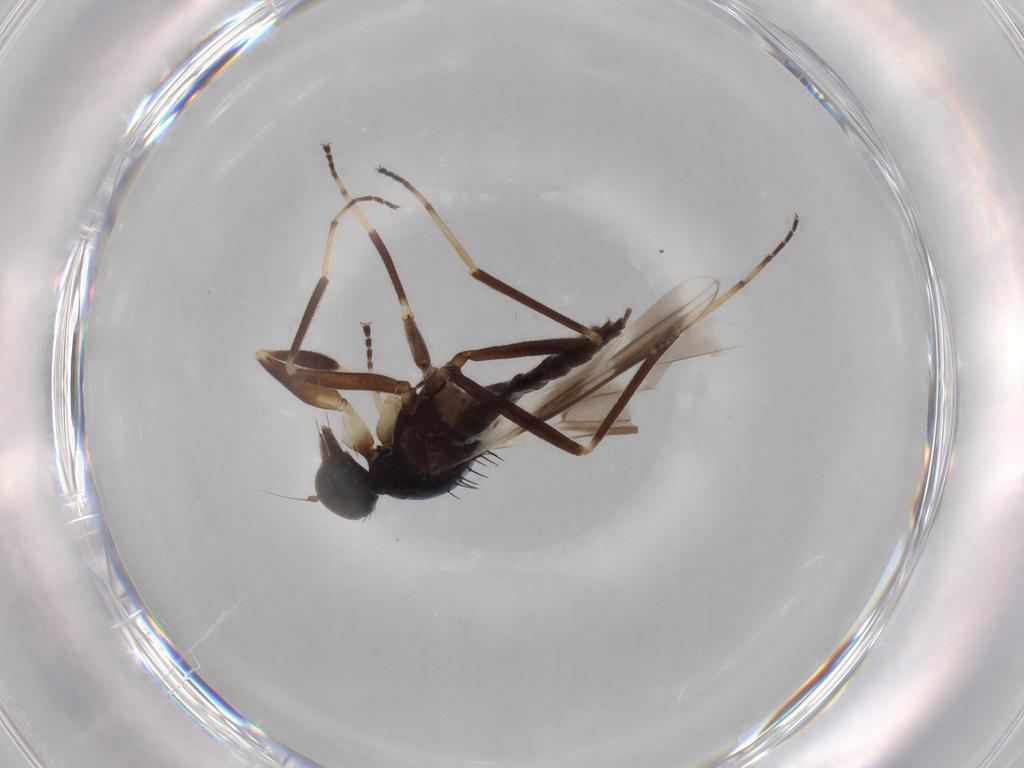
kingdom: Animalia
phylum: Arthropoda
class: Insecta
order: Diptera
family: Hybotidae
